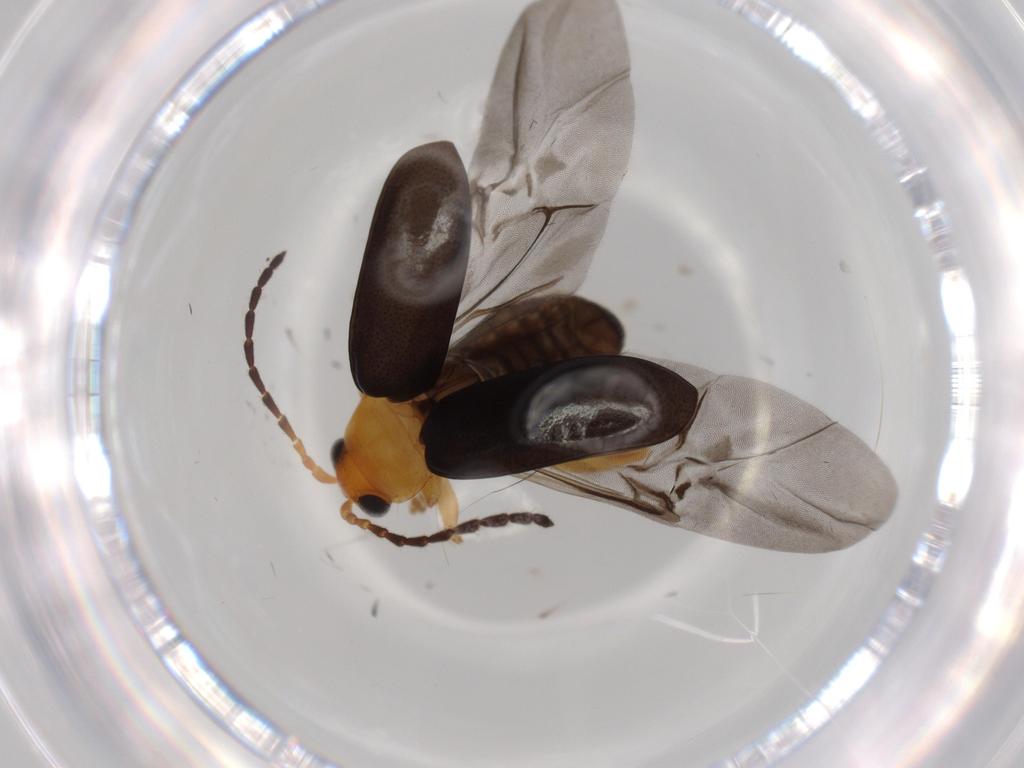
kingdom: Animalia
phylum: Arthropoda
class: Insecta
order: Coleoptera
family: Chrysomelidae
